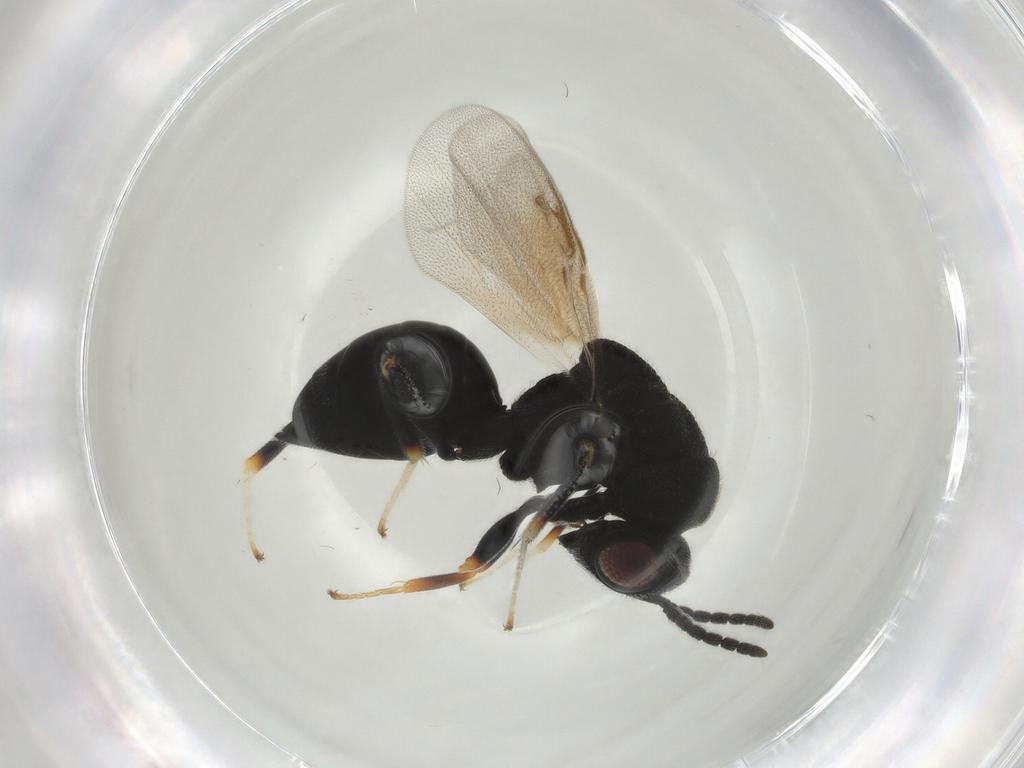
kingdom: Animalia
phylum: Arthropoda
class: Insecta
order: Hymenoptera
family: Eurytomidae
